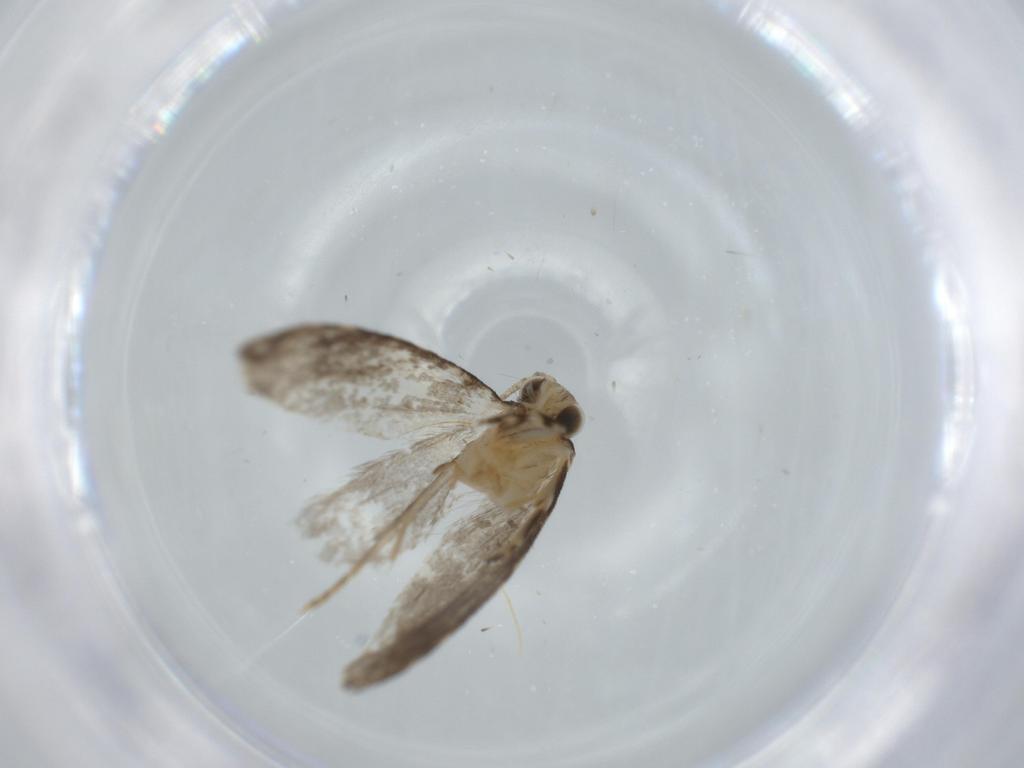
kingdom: Animalia
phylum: Arthropoda
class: Insecta
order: Lepidoptera
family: Tineidae
